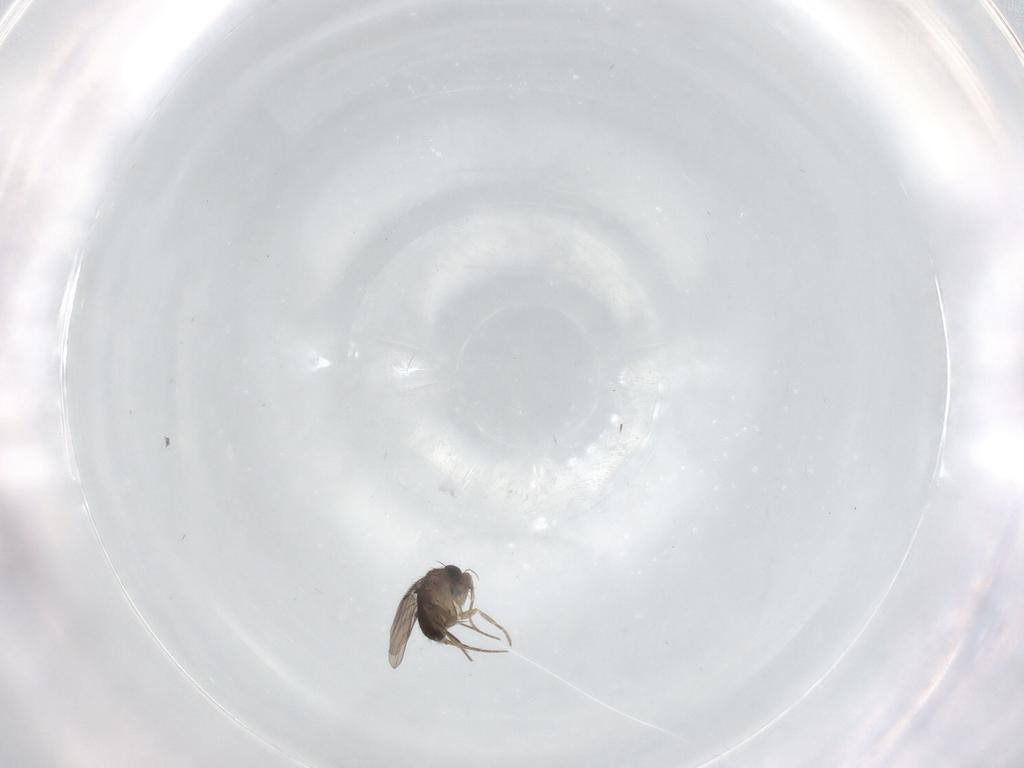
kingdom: Animalia
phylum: Arthropoda
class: Insecta
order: Diptera
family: Phoridae
